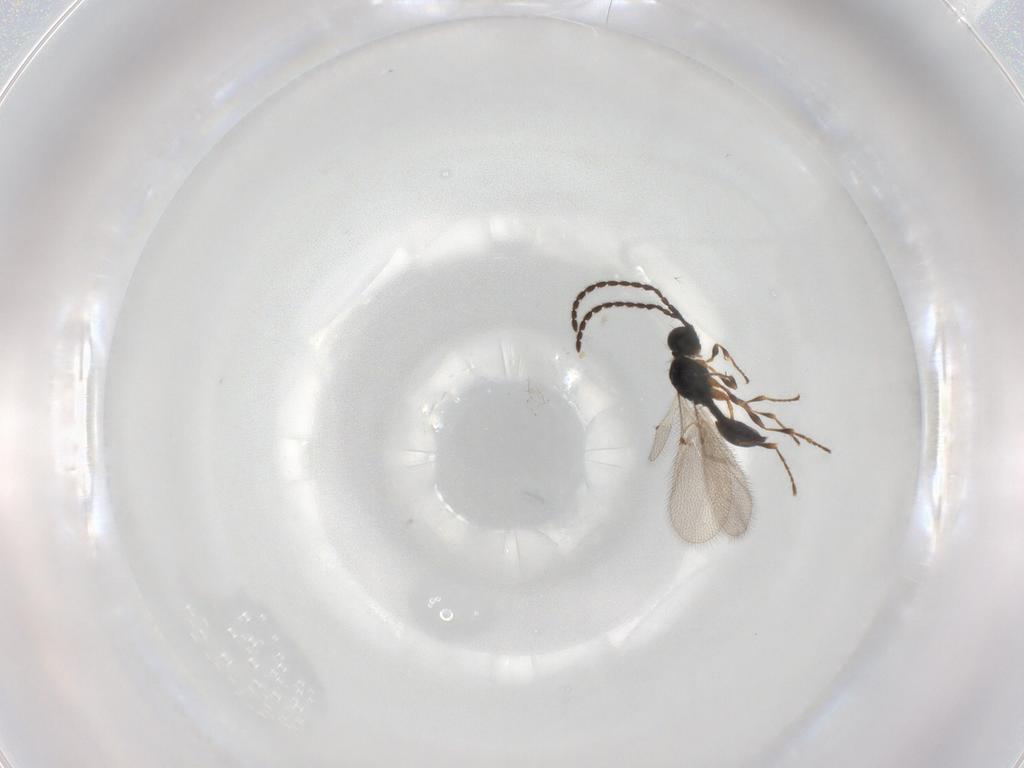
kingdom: Animalia
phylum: Arthropoda
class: Insecta
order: Hymenoptera
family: Diapriidae
